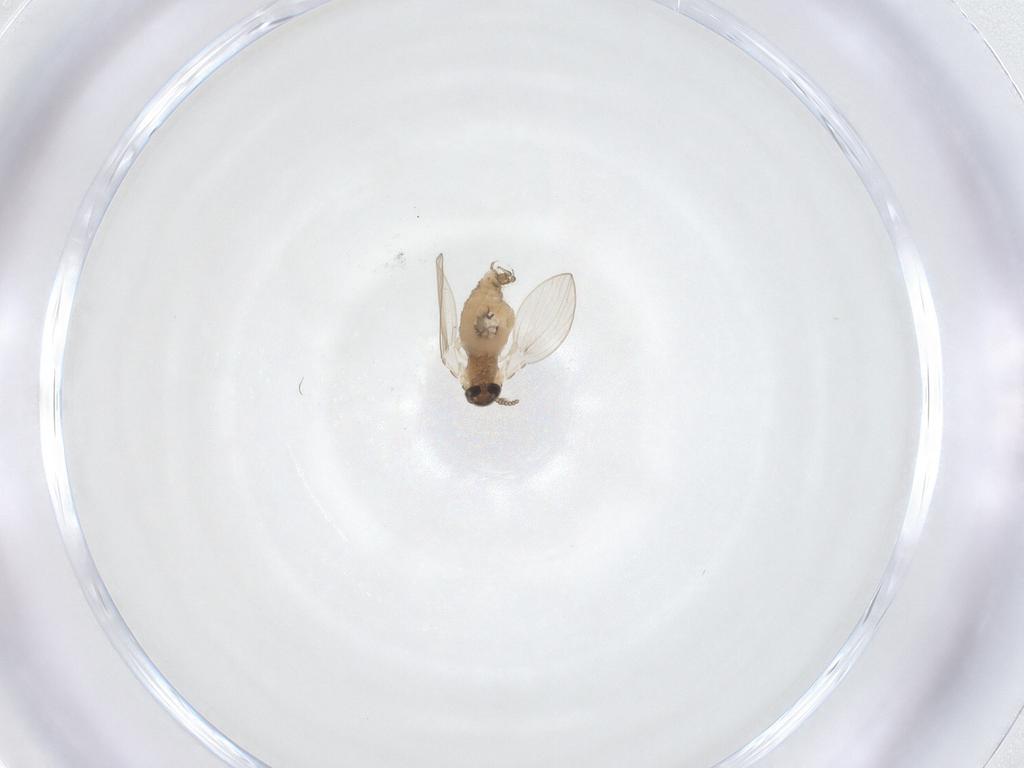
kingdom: Animalia
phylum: Arthropoda
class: Insecta
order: Diptera
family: Psychodidae
